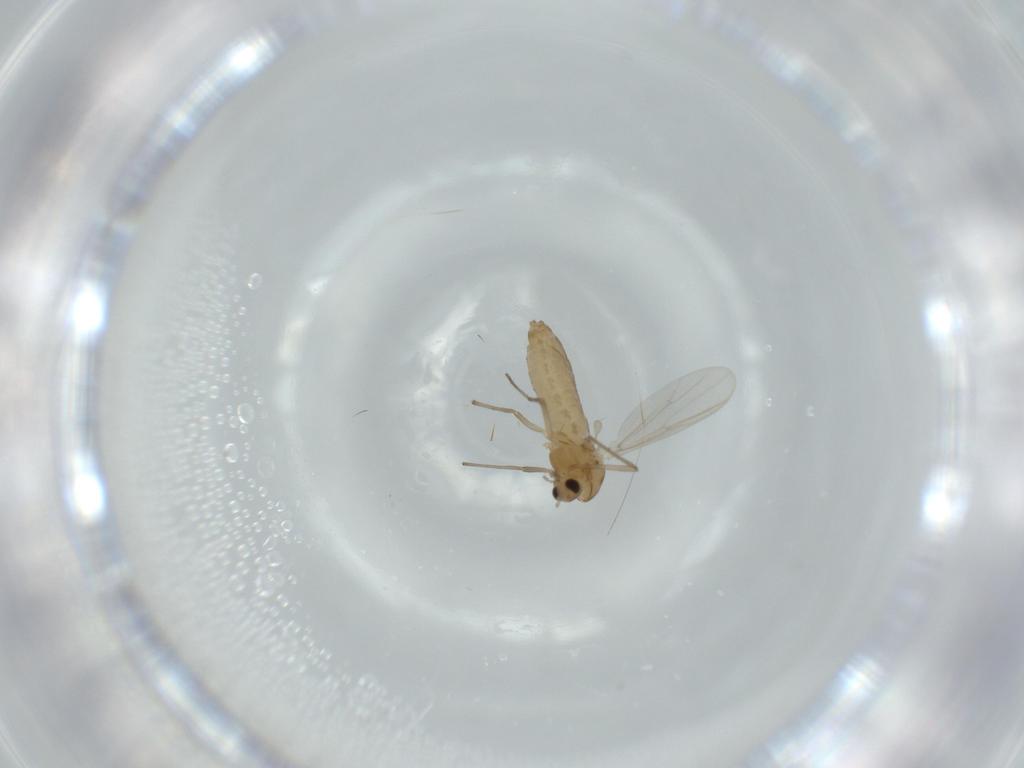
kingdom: Animalia
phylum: Arthropoda
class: Insecta
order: Diptera
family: Chironomidae
